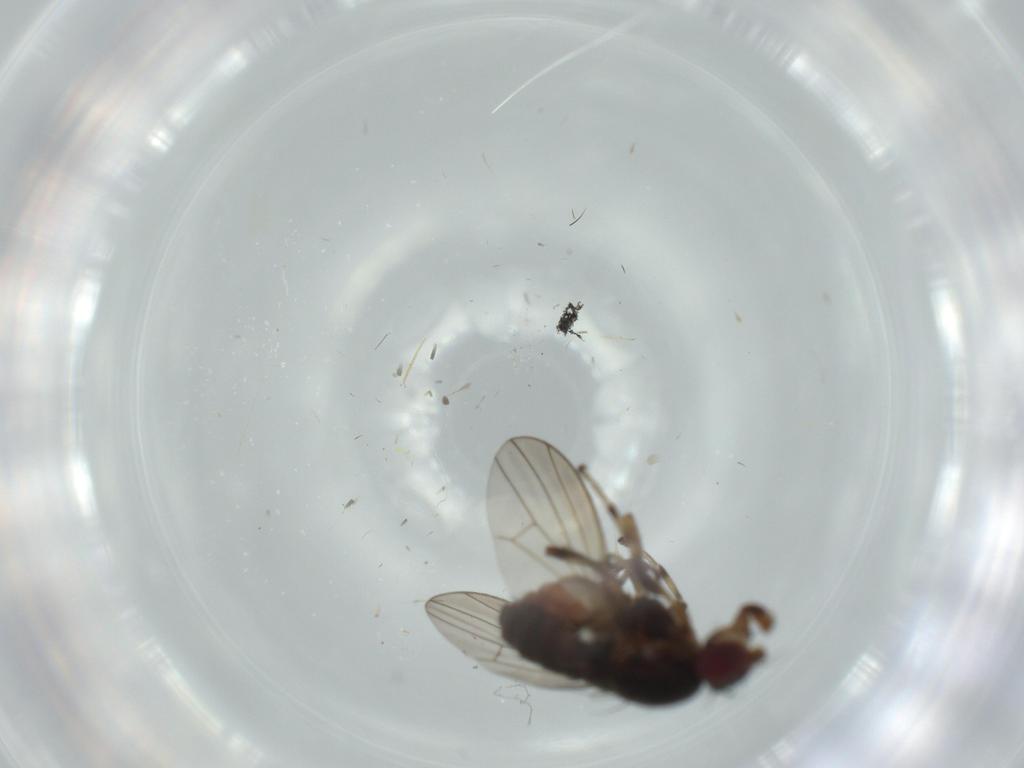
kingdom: Animalia
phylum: Arthropoda
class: Insecta
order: Diptera
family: Heleomyzidae
